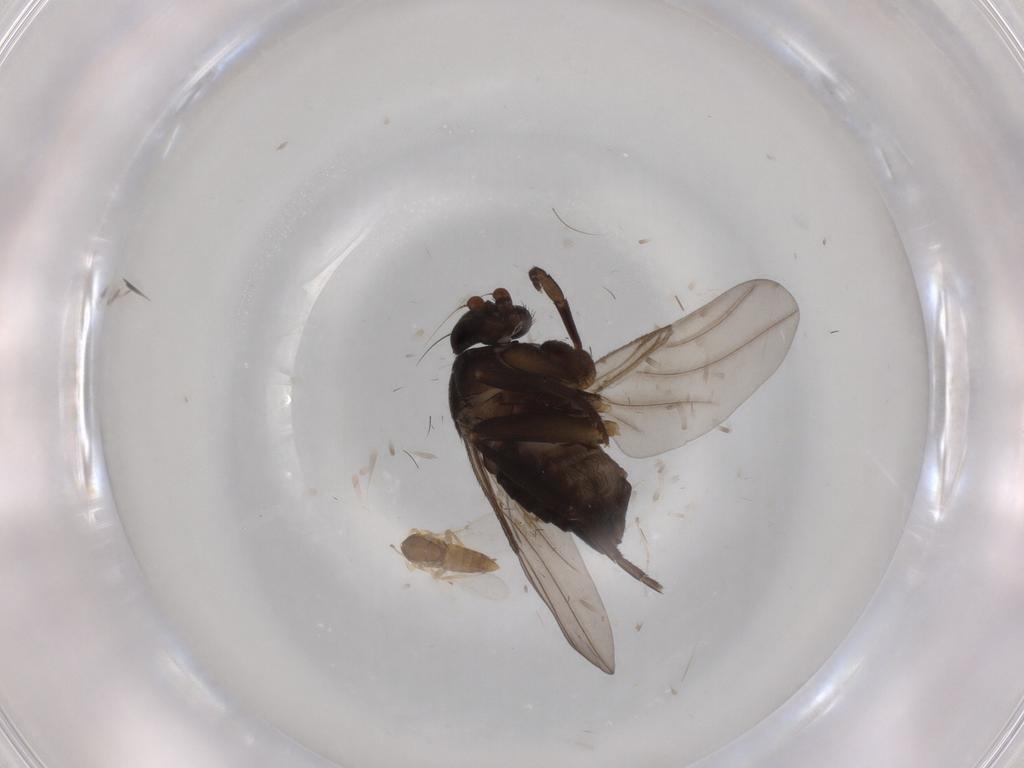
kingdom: Animalia
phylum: Arthropoda
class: Insecta
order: Diptera
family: Phoridae
